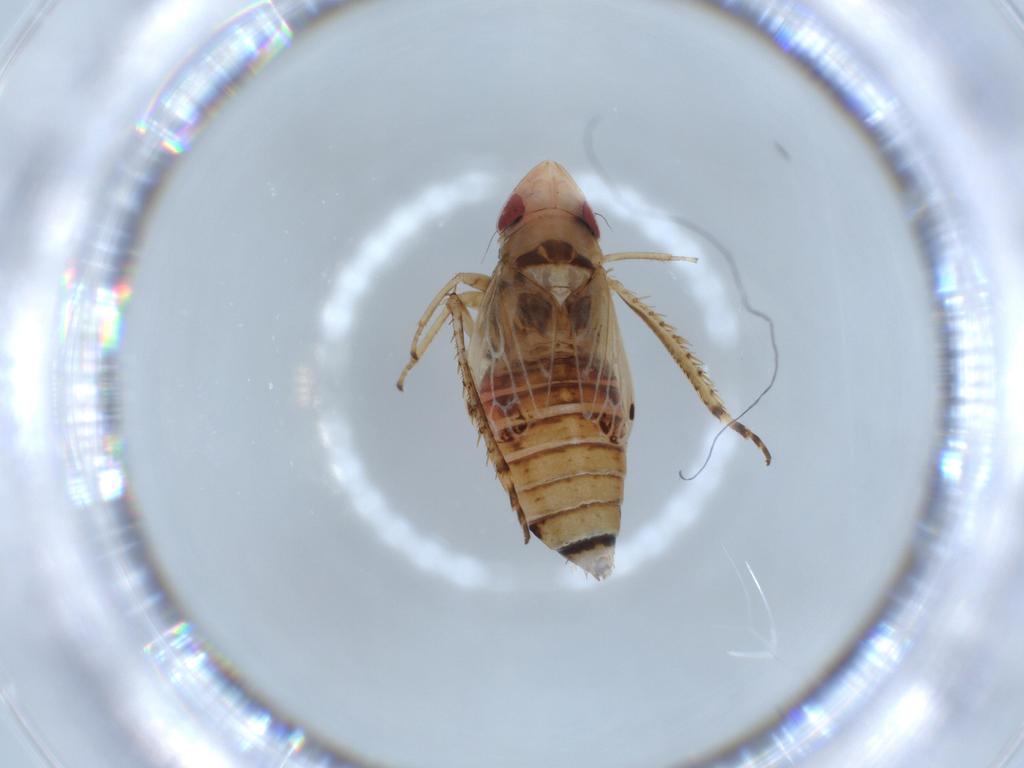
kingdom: Animalia
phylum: Arthropoda
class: Insecta
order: Hemiptera
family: Cicadellidae
